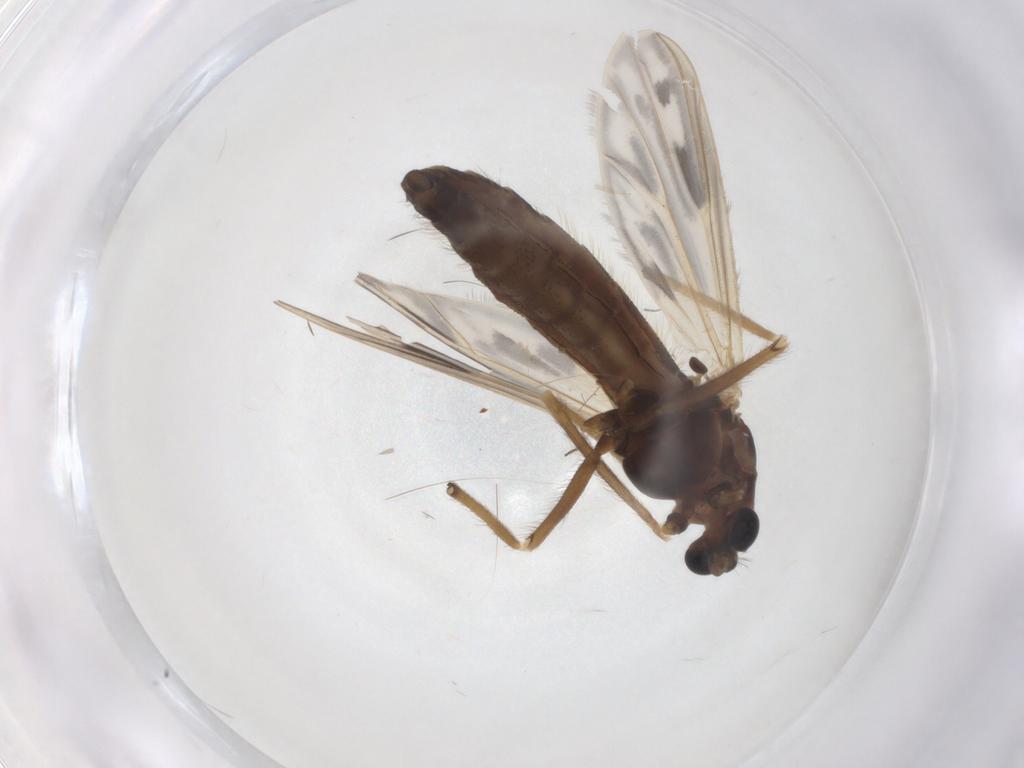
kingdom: Animalia
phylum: Arthropoda
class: Insecta
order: Diptera
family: Chironomidae
